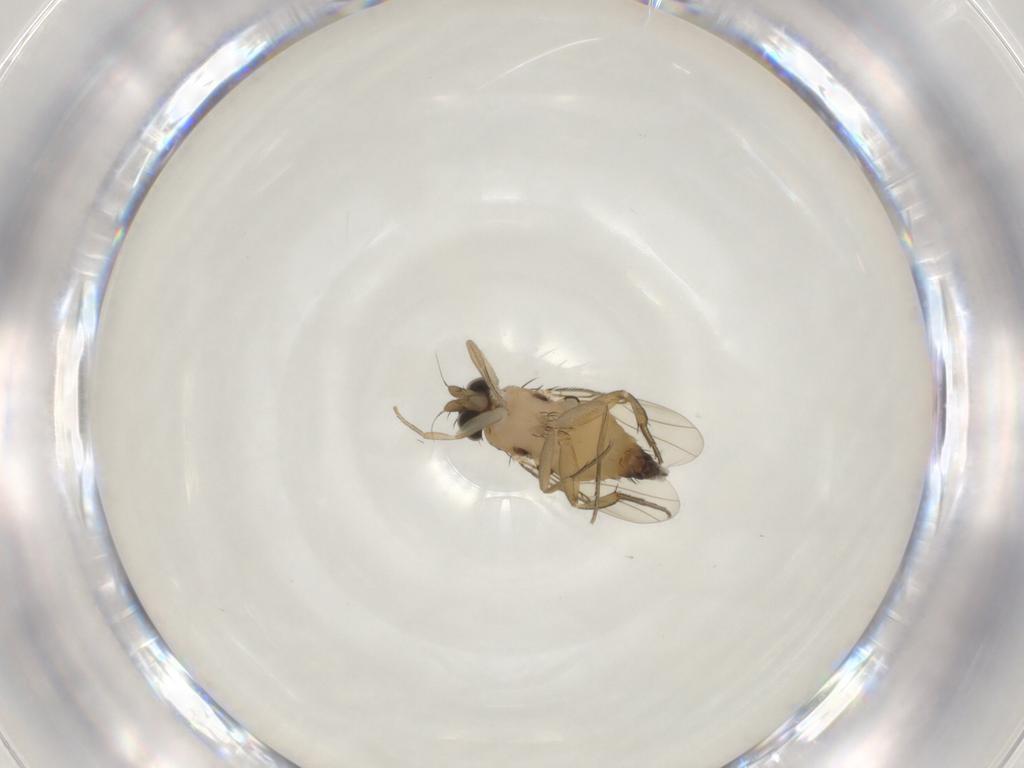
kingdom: Animalia
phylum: Arthropoda
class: Insecta
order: Diptera
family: Phoridae
